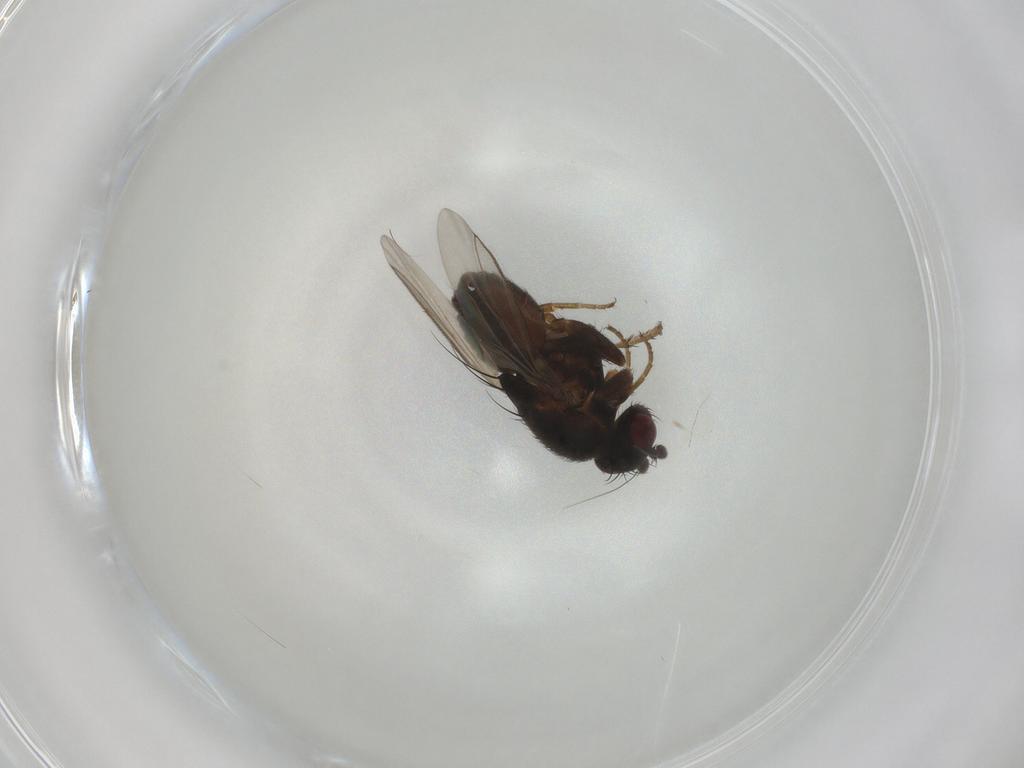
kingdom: Animalia
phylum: Arthropoda
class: Insecta
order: Diptera
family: Sphaeroceridae
